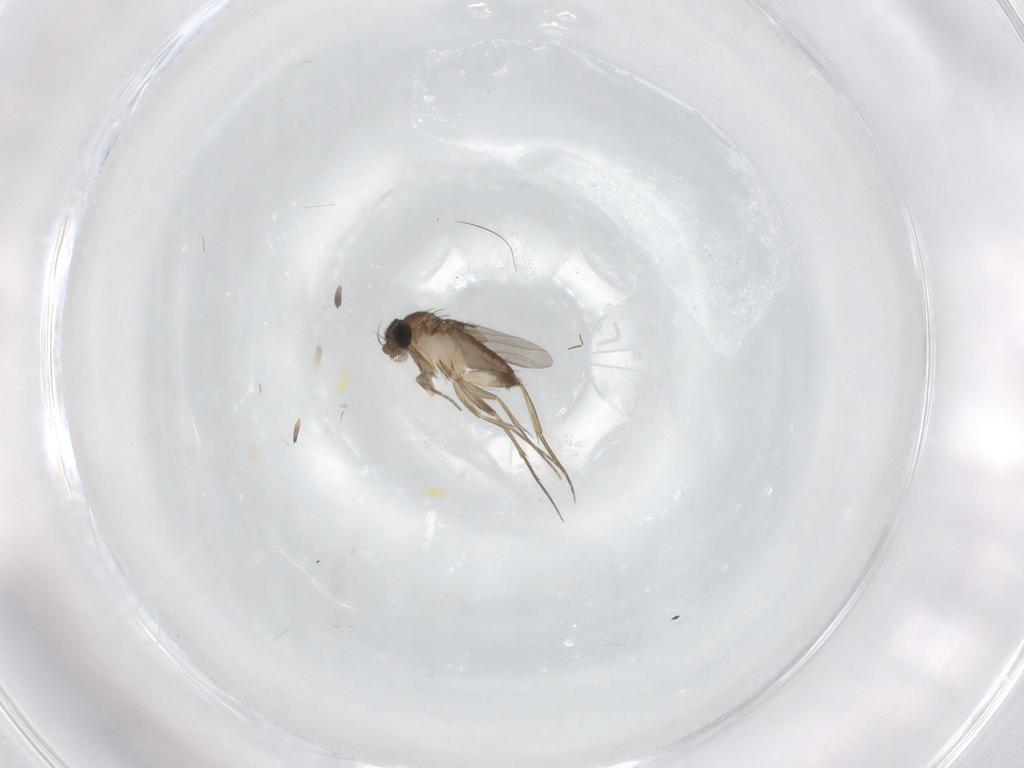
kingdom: Animalia
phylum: Arthropoda
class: Insecta
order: Diptera
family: Phoridae
